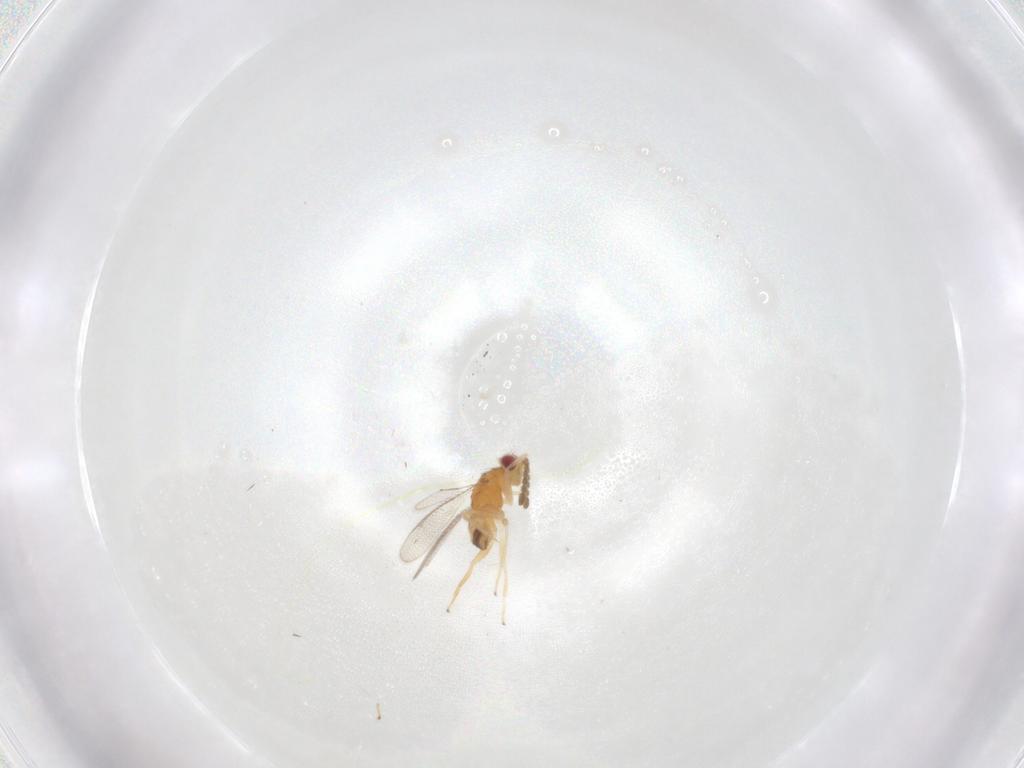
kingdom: Animalia
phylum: Arthropoda
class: Insecta
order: Hymenoptera
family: Eulophidae
